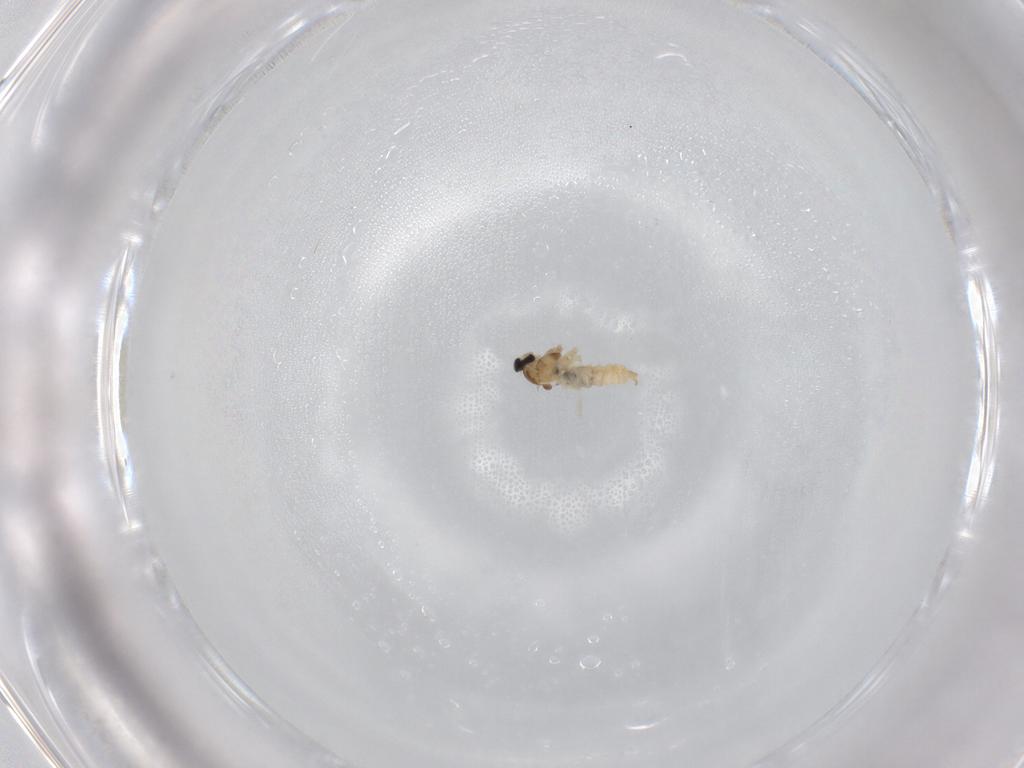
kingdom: Animalia
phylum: Arthropoda
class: Insecta
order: Diptera
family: Cecidomyiidae
